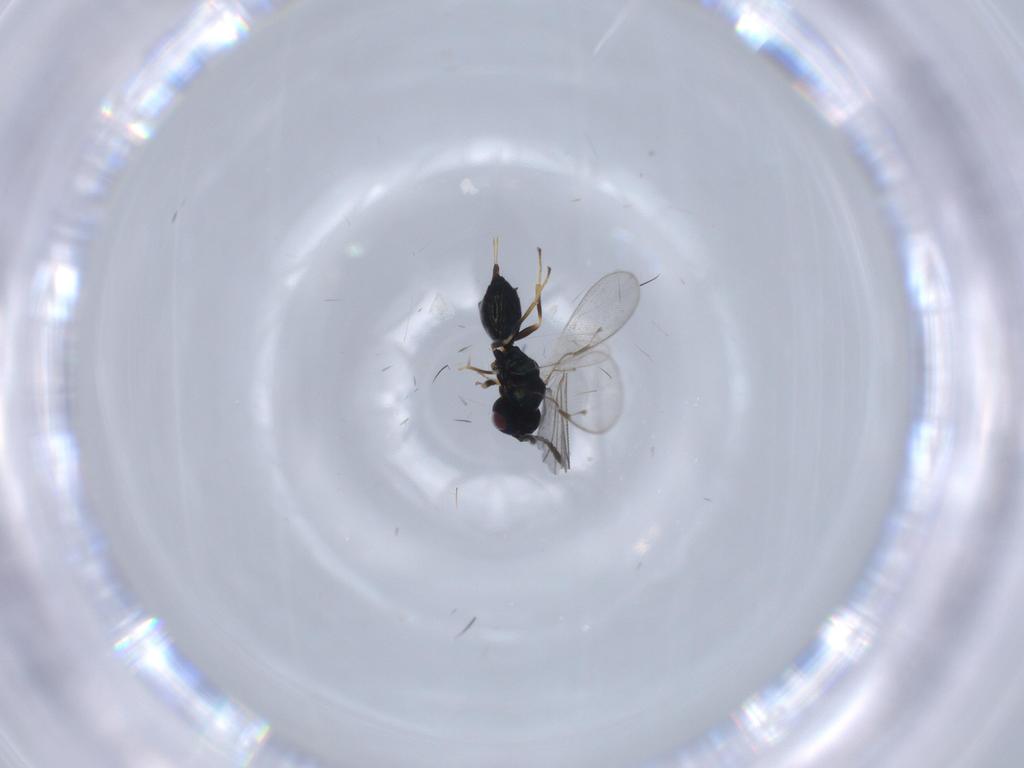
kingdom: Animalia
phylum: Arthropoda
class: Insecta
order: Hymenoptera
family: Pteromalidae
